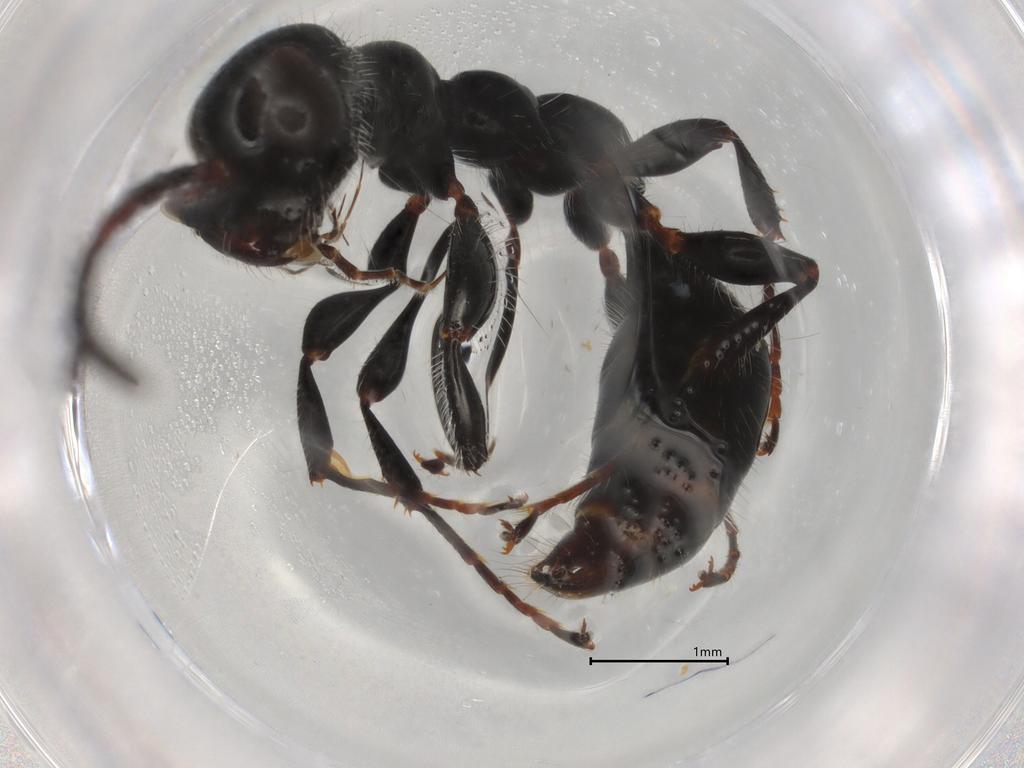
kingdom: Animalia
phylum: Arthropoda
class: Insecta
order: Hymenoptera
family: Thynnidae
